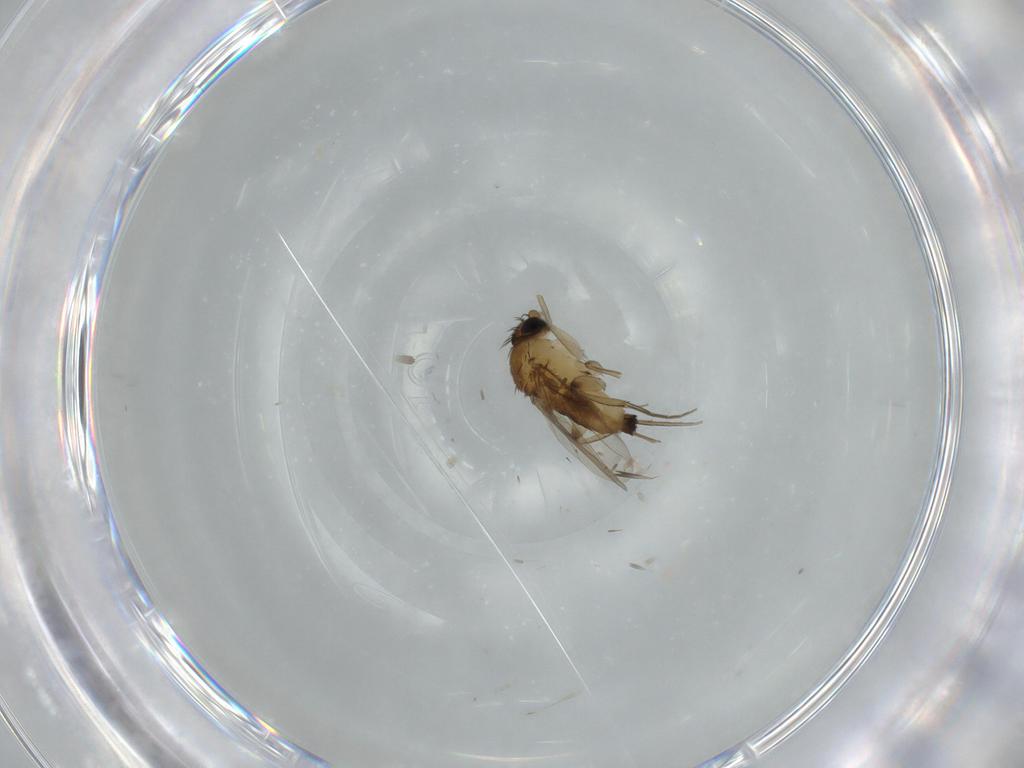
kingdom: Animalia
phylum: Arthropoda
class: Insecta
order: Diptera
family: Phoridae
